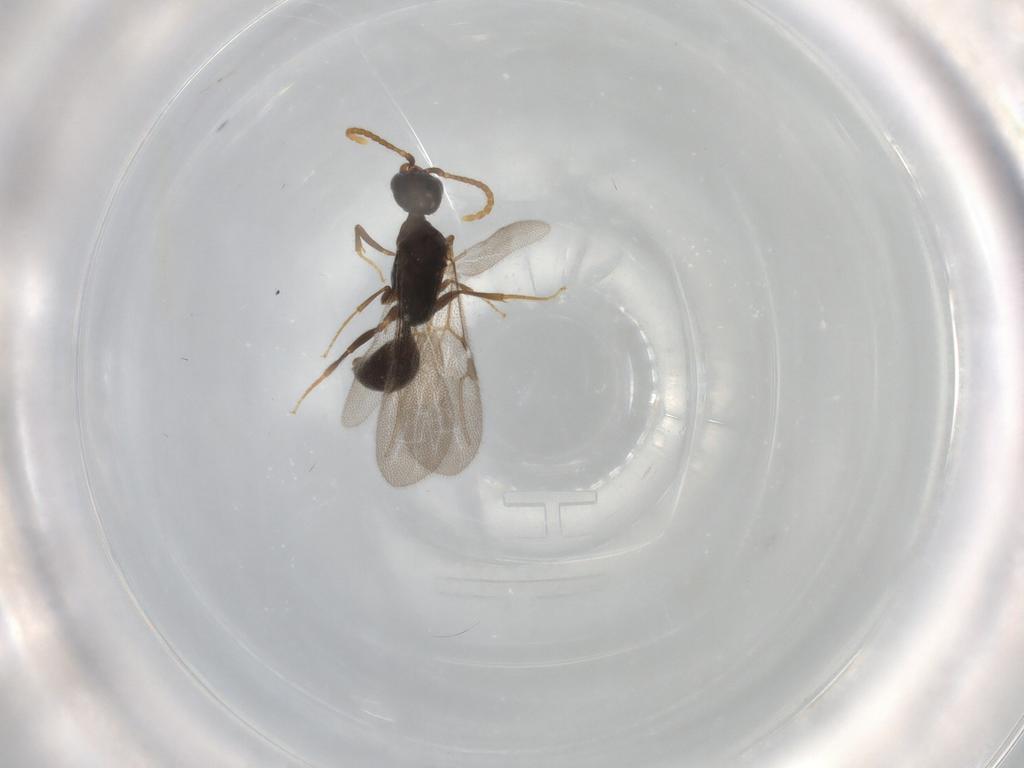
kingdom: Animalia
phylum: Arthropoda
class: Insecta
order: Hymenoptera
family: Bethylidae
